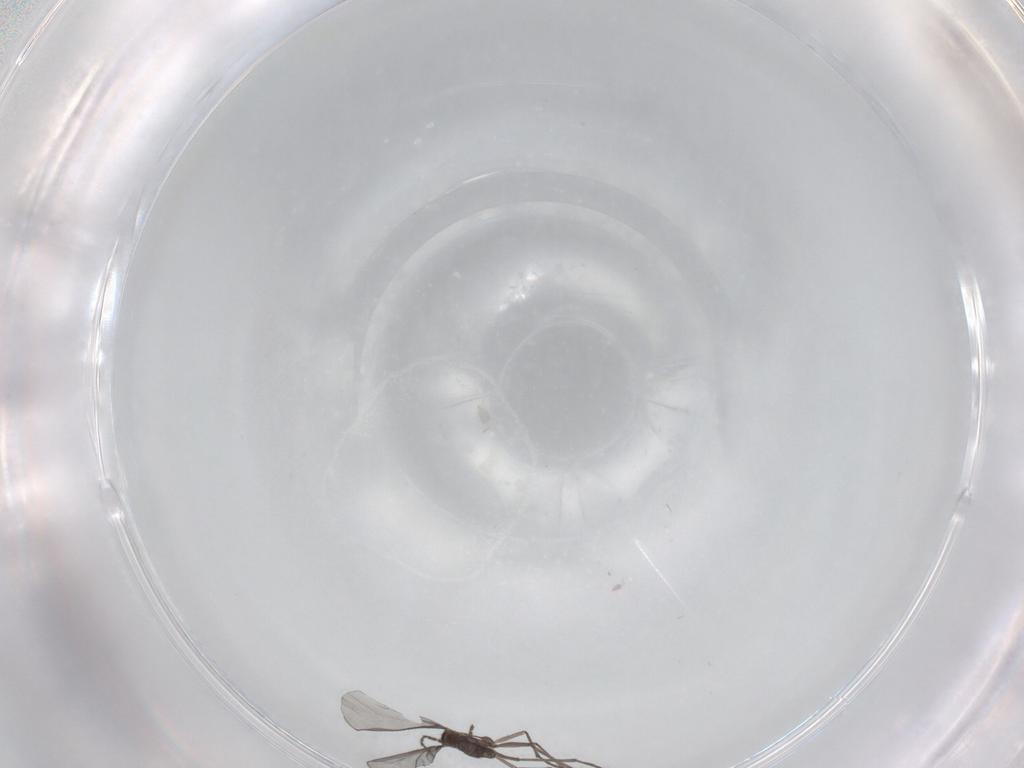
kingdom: Animalia
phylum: Arthropoda
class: Insecta
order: Diptera
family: Sciaridae
